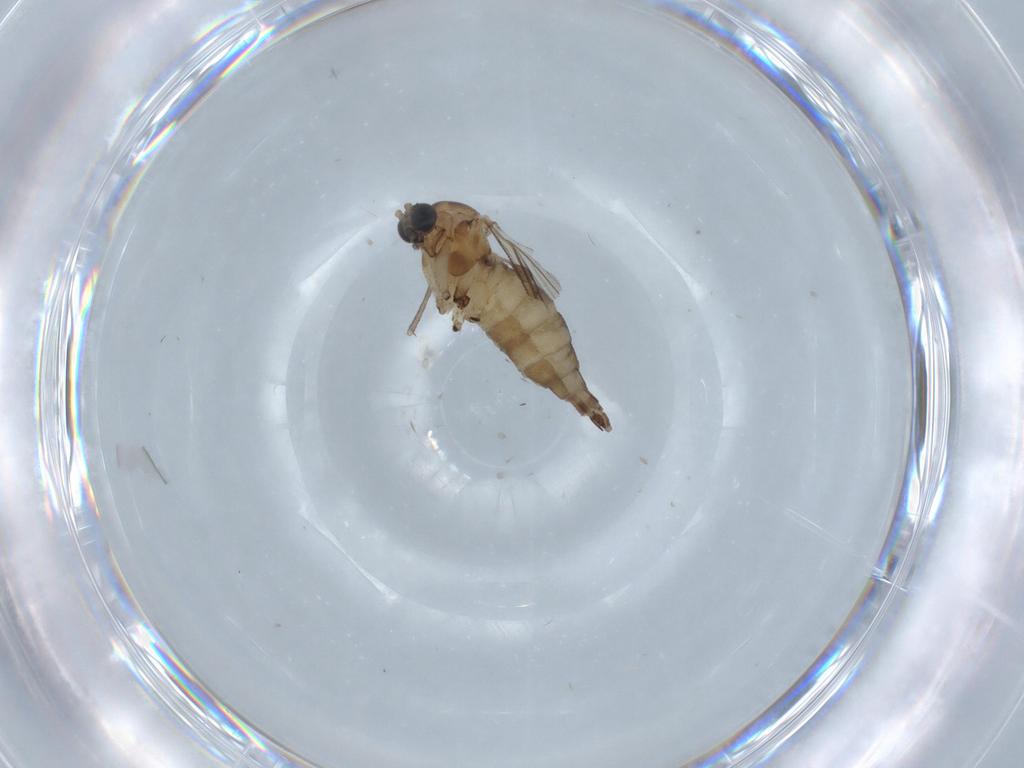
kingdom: Animalia
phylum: Arthropoda
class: Insecta
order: Diptera
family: Sciaridae
